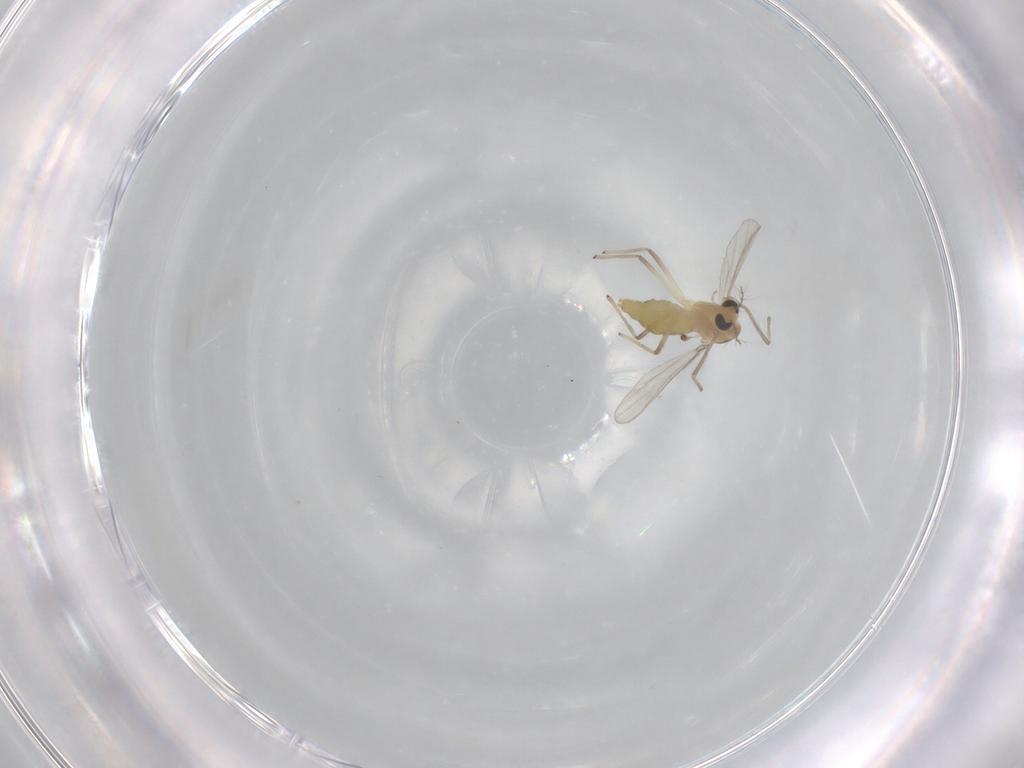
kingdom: Animalia
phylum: Arthropoda
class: Insecta
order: Diptera
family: Chironomidae
